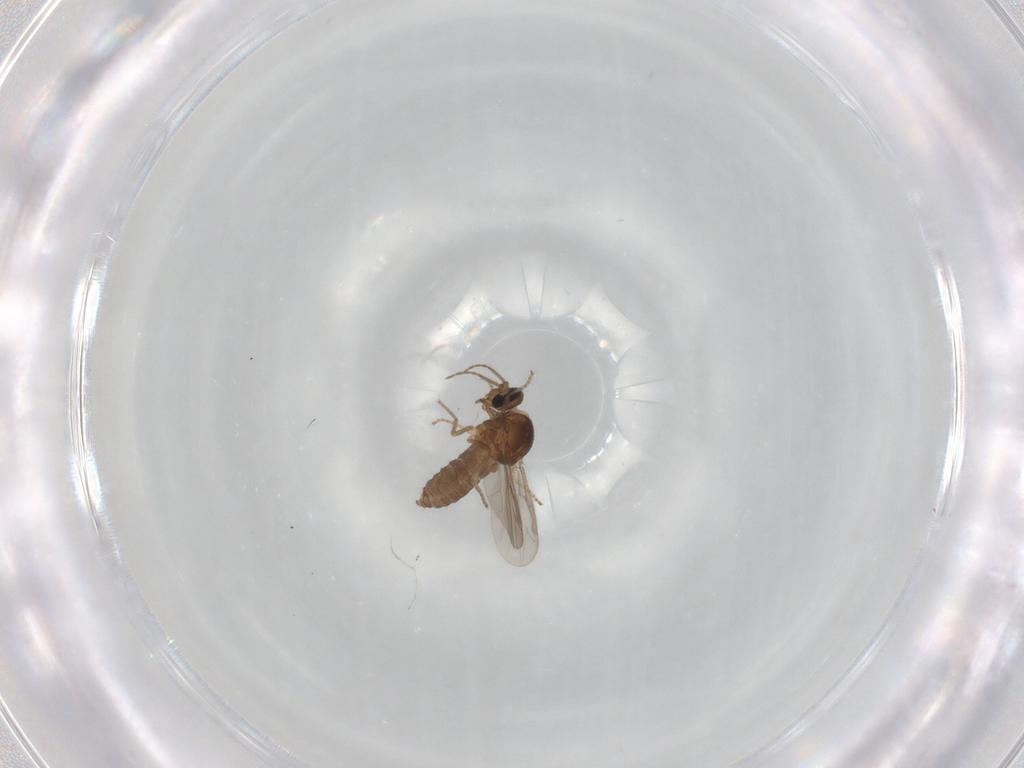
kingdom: Animalia
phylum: Arthropoda
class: Insecta
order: Diptera
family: Ceratopogonidae
